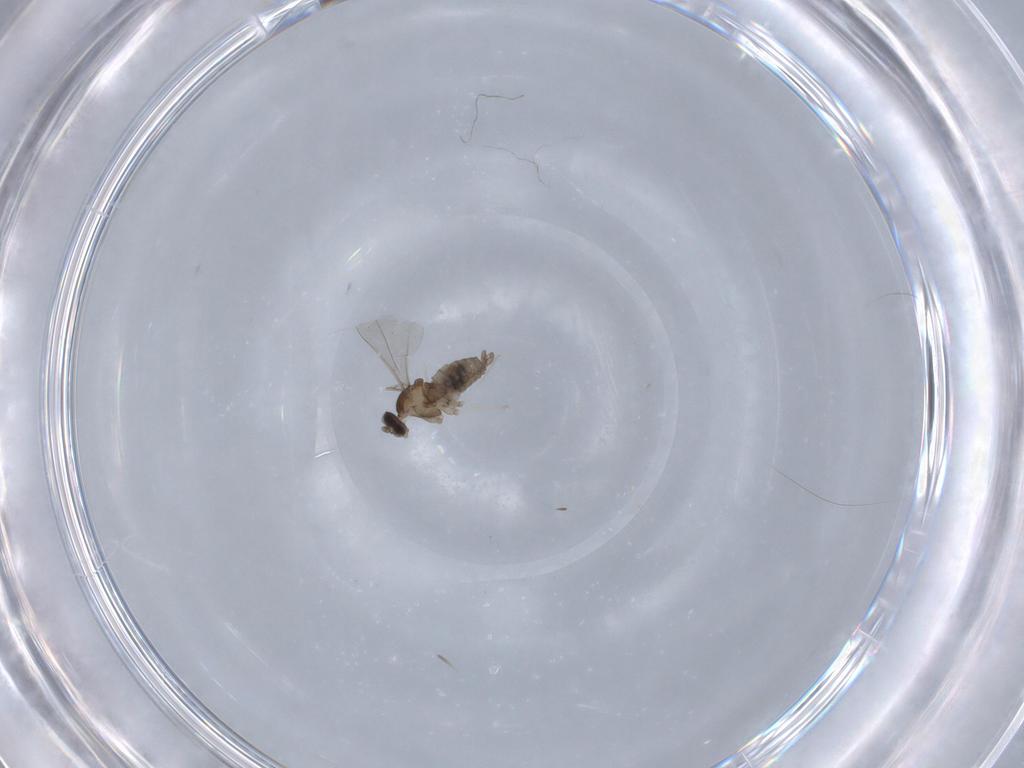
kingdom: Animalia
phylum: Arthropoda
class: Insecta
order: Diptera
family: Cecidomyiidae
